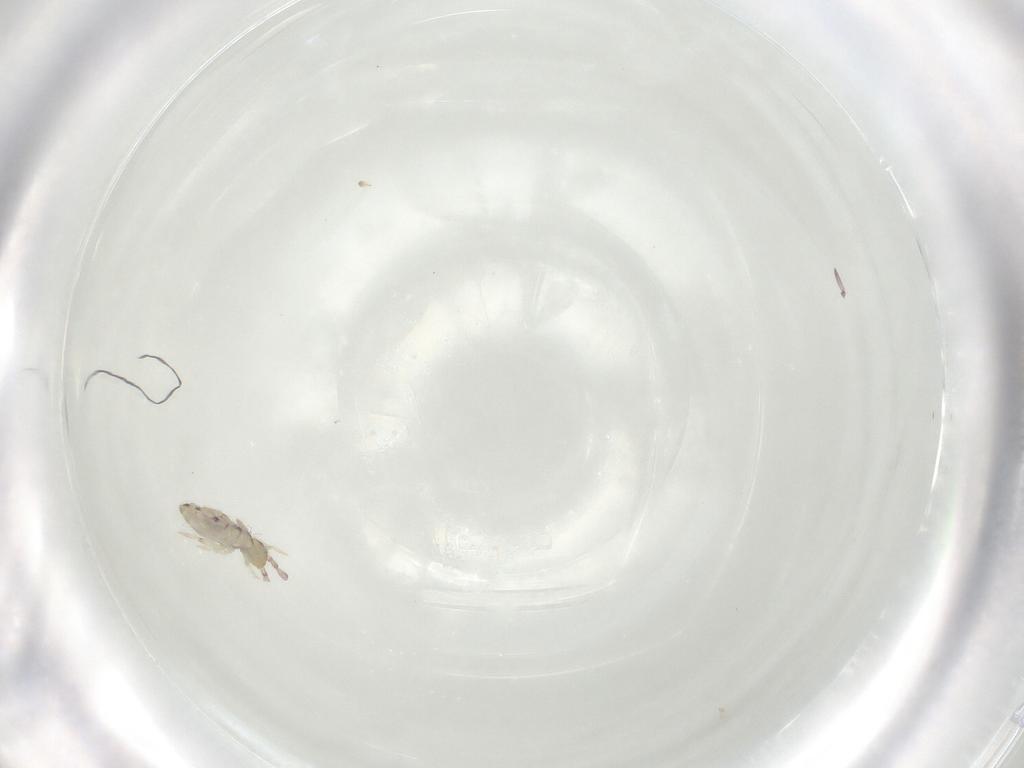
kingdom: Animalia
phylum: Arthropoda
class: Collembola
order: Entomobryomorpha
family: Entomobryidae
